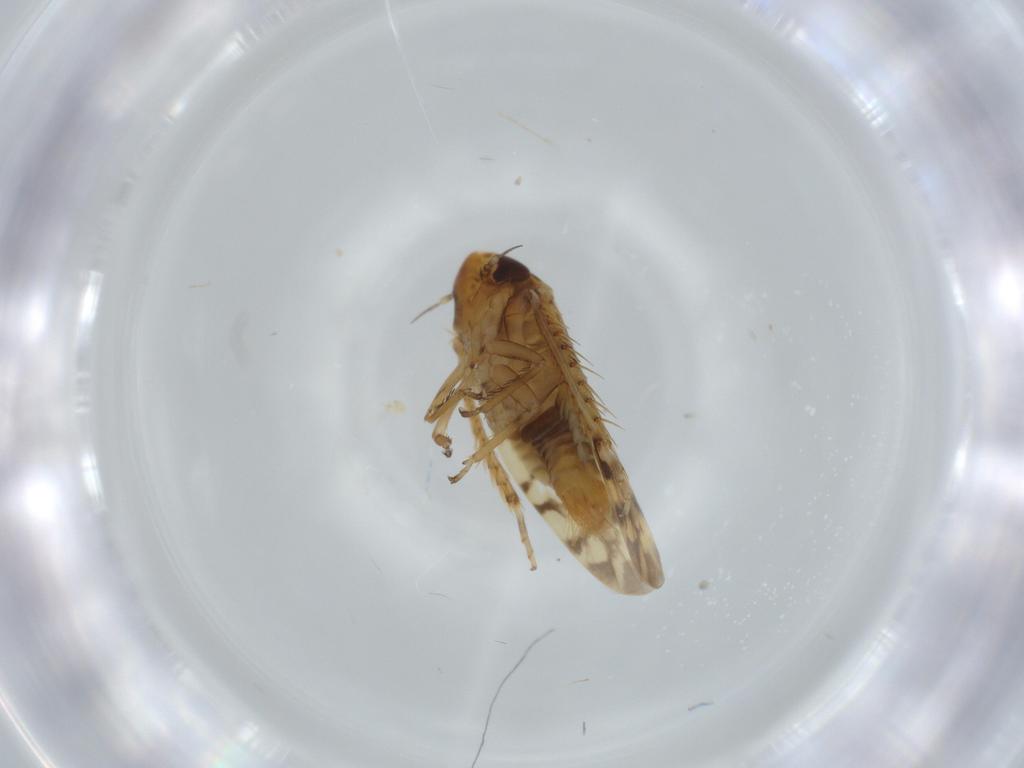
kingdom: Animalia
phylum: Arthropoda
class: Insecta
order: Hemiptera
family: Cicadellidae
